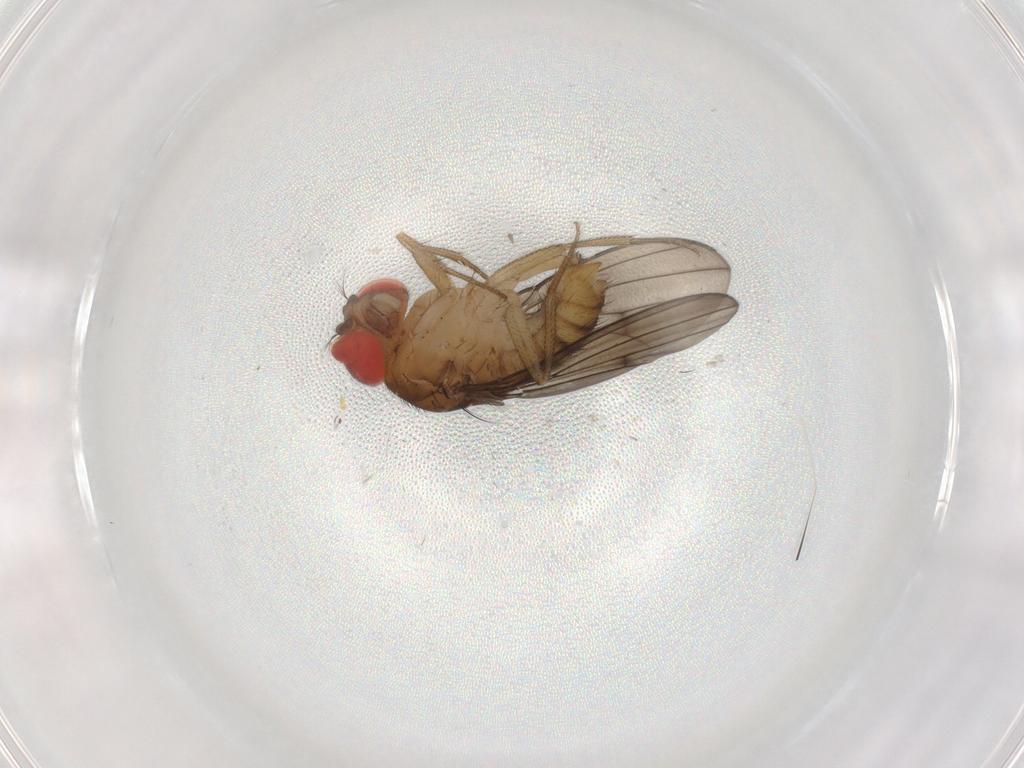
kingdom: Animalia
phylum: Arthropoda
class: Insecta
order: Diptera
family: Drosophilidae
